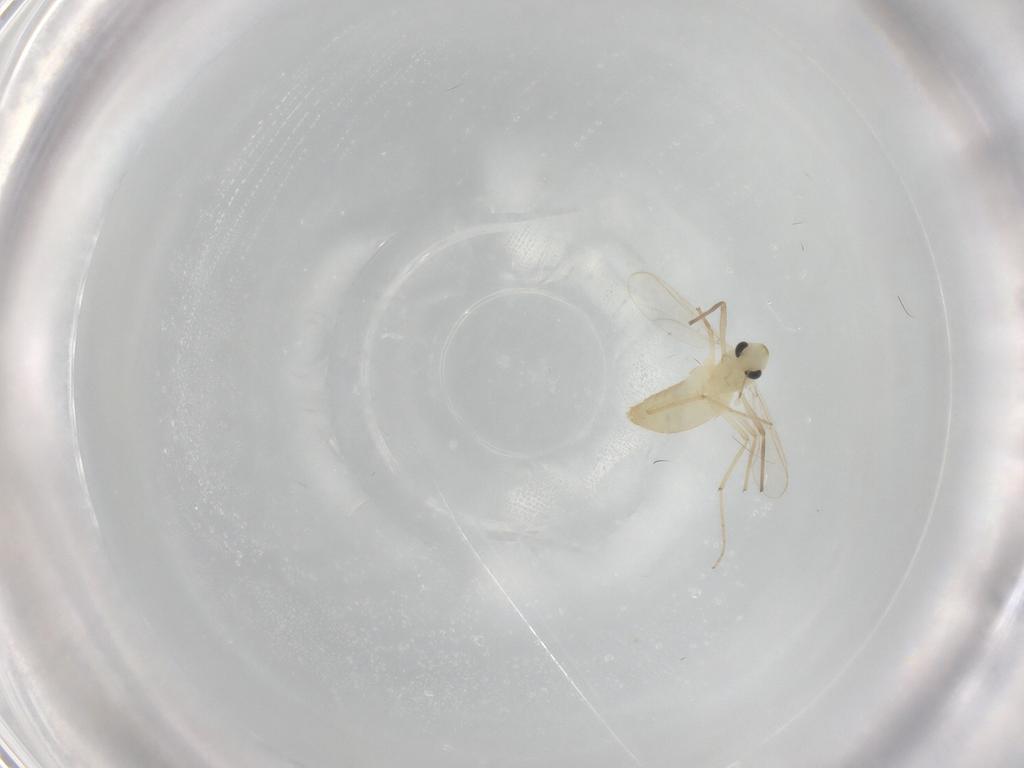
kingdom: Animalia
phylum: Arthropoda
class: Insecta
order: Diptera
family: Chironomidae
